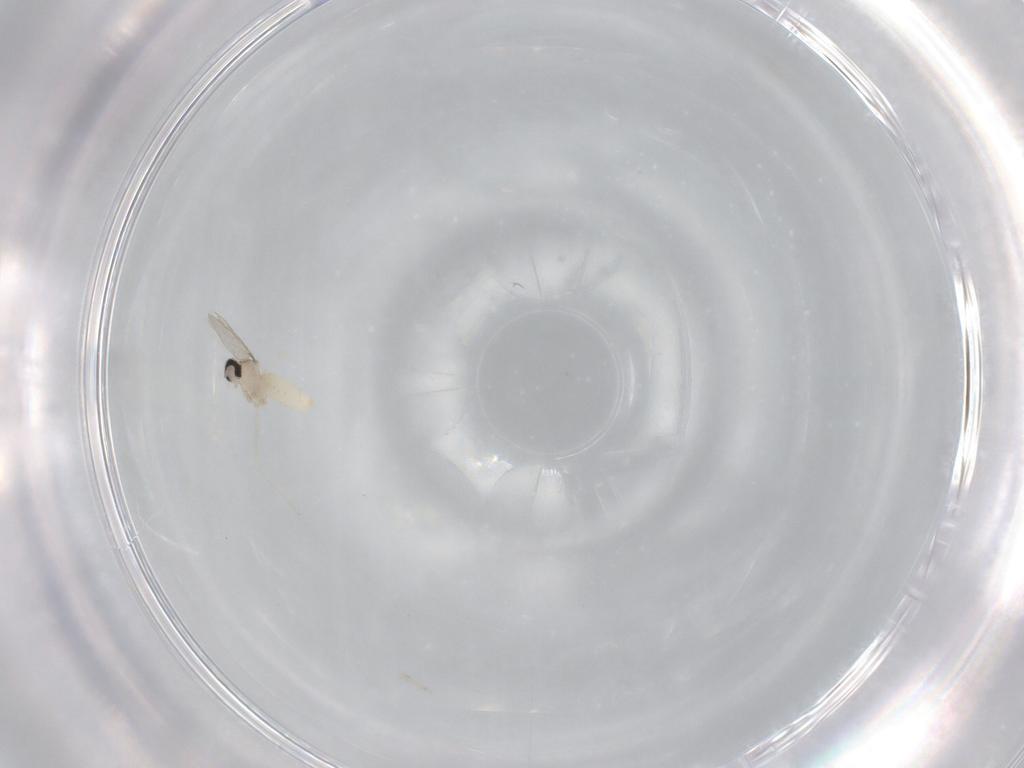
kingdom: Animalia
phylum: Arthropoda
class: Insecta
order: Diptera
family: Cecidomyiidae
